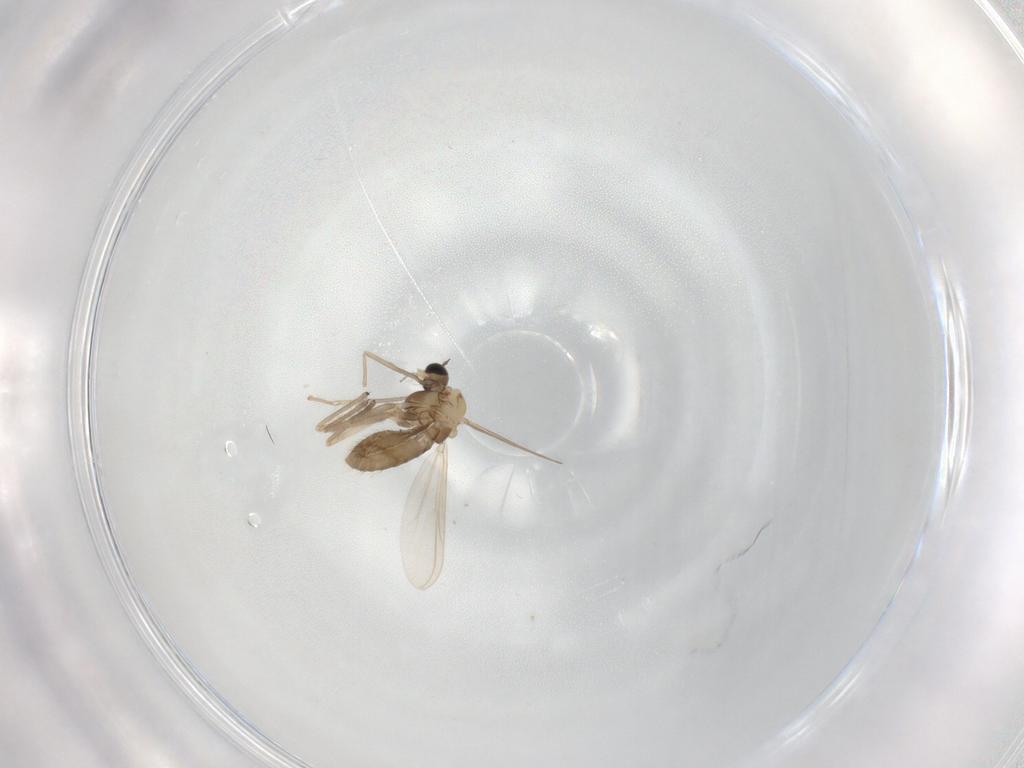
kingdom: Animalia
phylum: Arthropoda
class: Insecta
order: Diptera
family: Chironomidae
